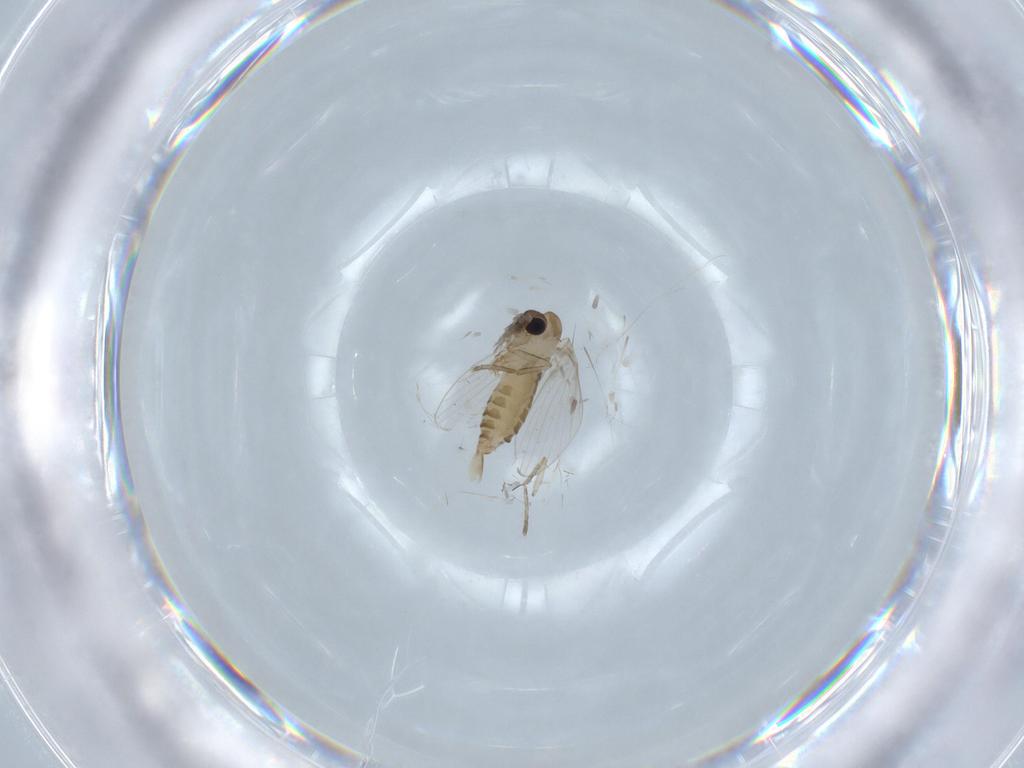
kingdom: Animalia
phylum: Arthropoda
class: Insecta
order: Diptera
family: Psychodidae
